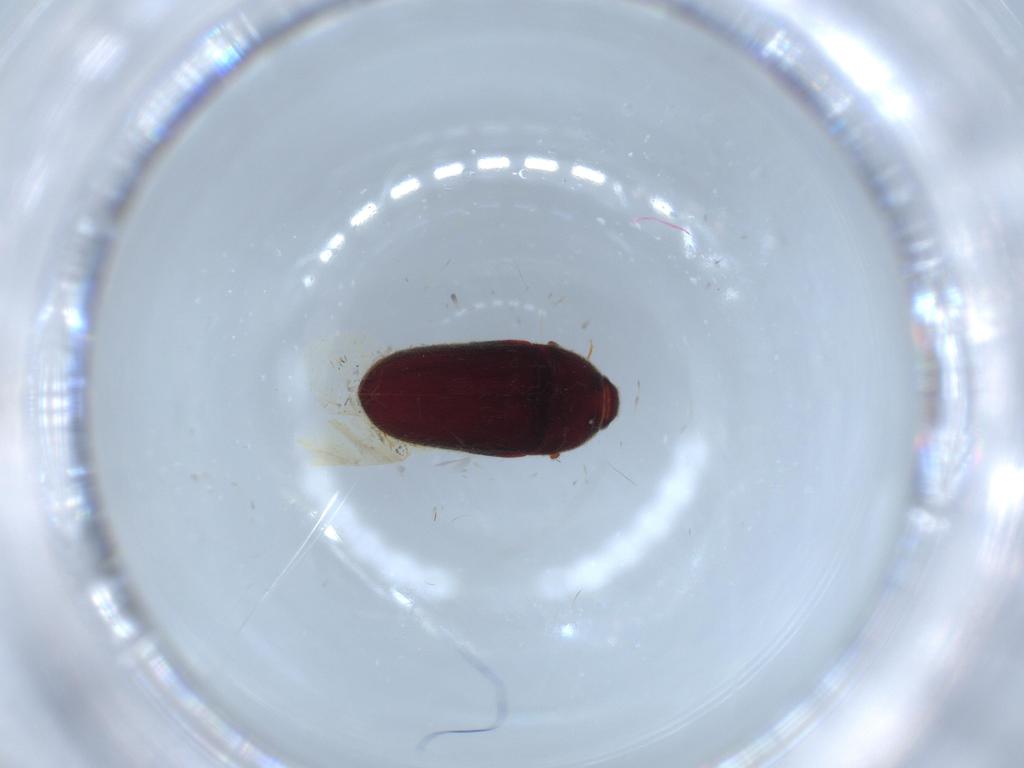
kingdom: Animalia
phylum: Arthropoda
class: Insecta
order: Coleoptera
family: Throscidae
